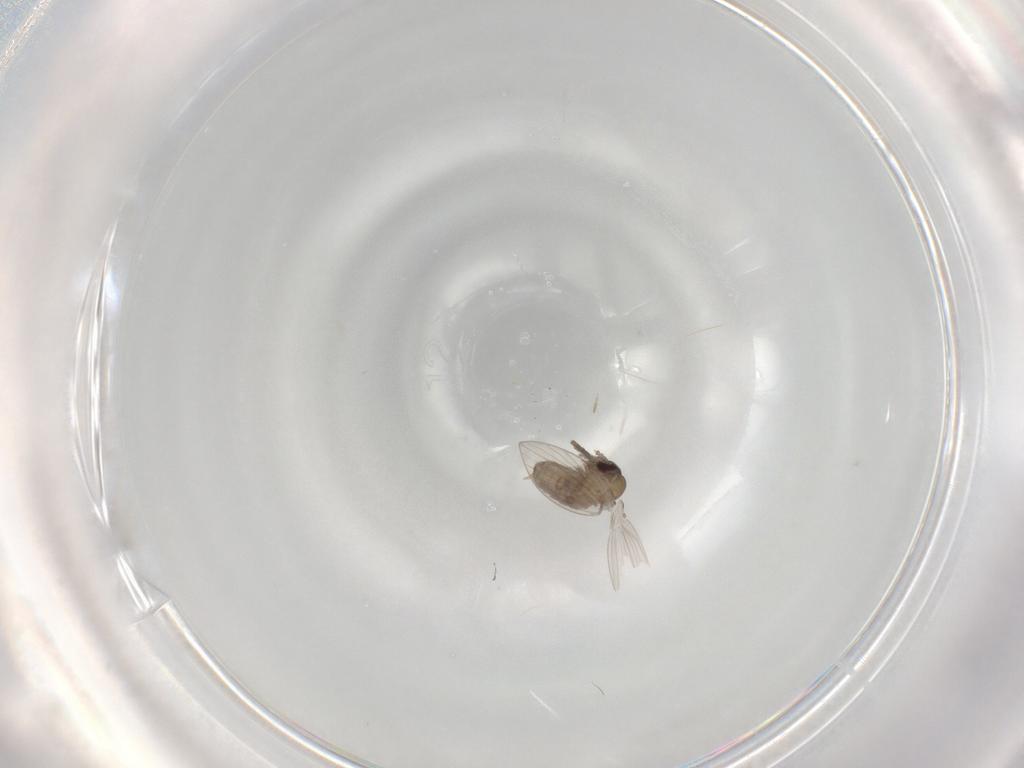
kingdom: Animalia
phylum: Arthropoda
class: Insecta
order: Diptera
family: Psychodidae
